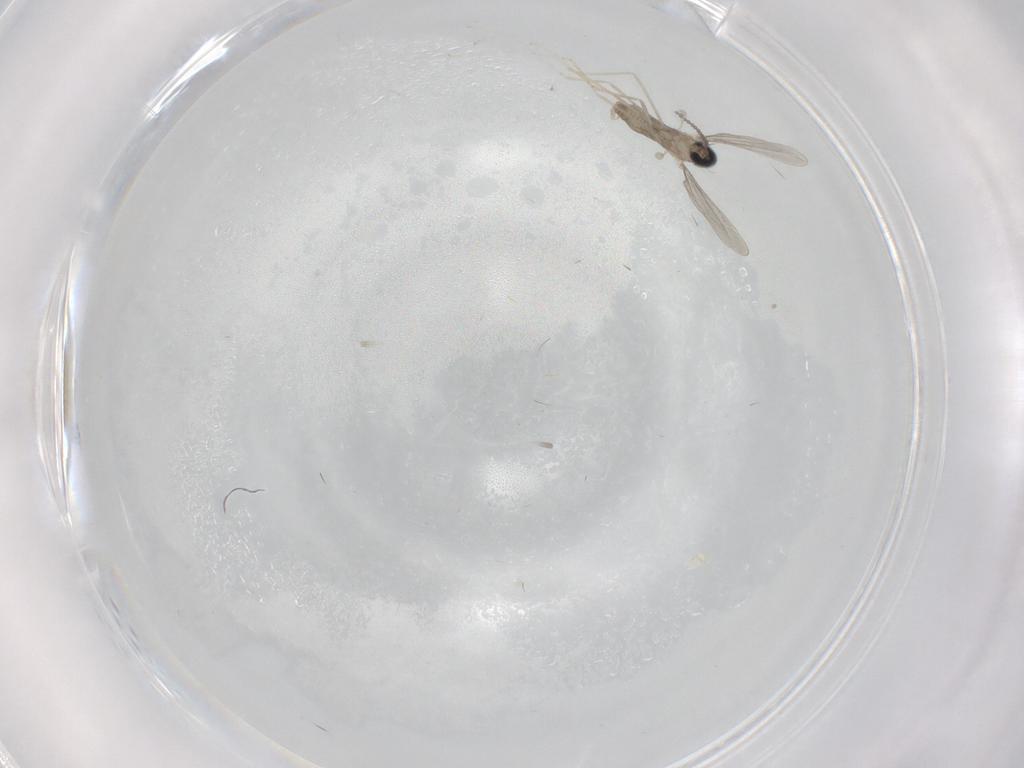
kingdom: Animalia
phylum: Arthropoda
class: Insecta
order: Diptera
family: Phoridae
